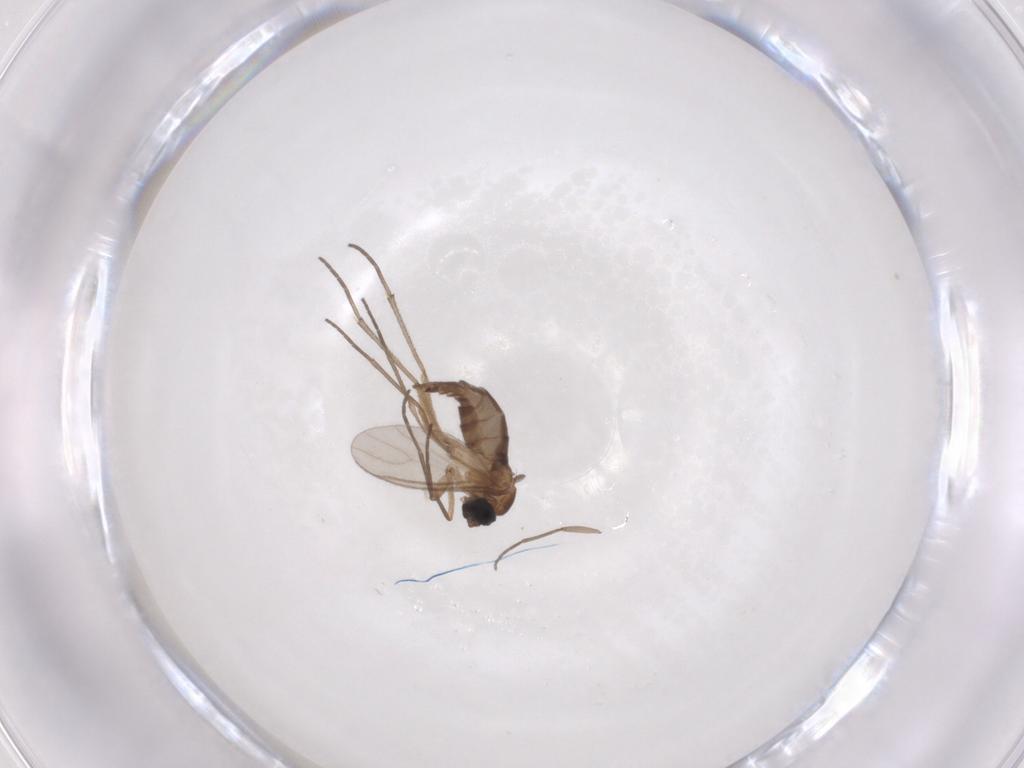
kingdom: Animalia
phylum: Arthropoda
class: Insecta
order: Diptera
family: Sciaridae
